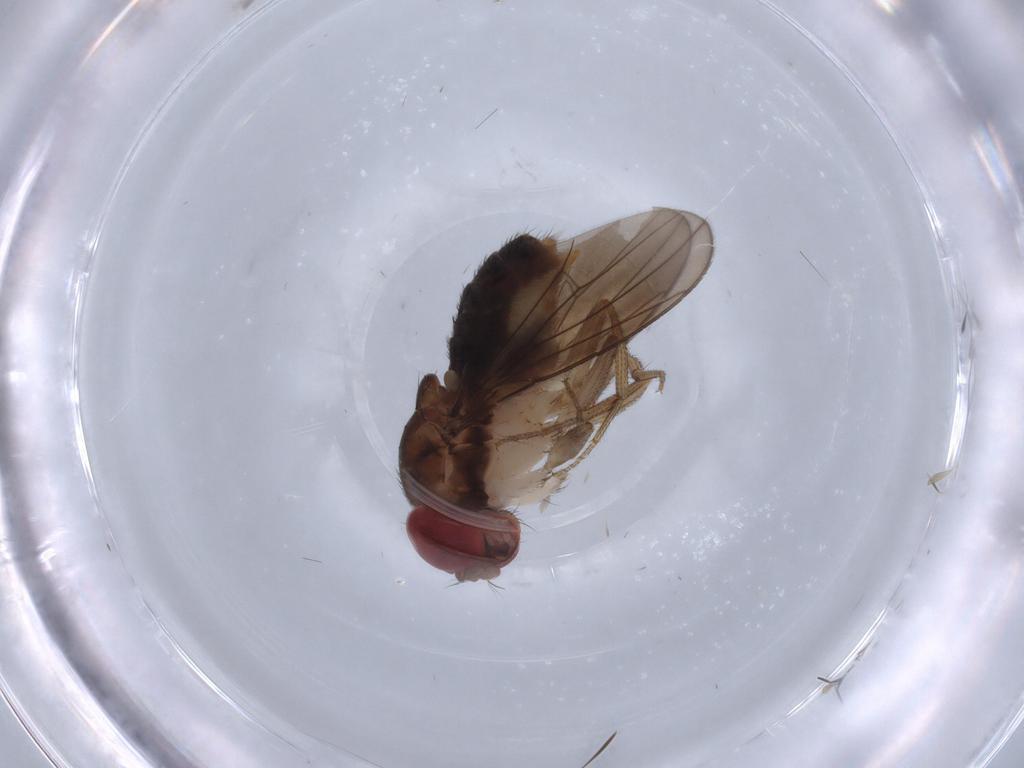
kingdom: Animalia
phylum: Arthropoda
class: Insecta
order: Diptera
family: Drosophilidae
